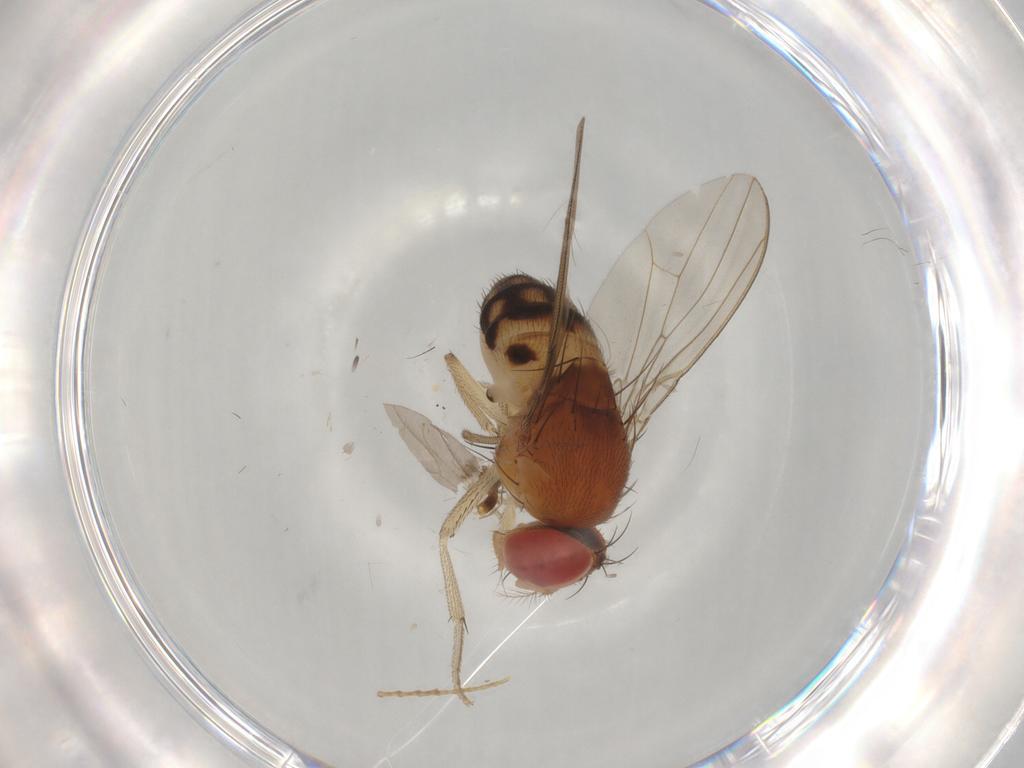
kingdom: Animalia
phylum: Arthropoda
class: Insecta
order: Diptera
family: Drosophilidae
